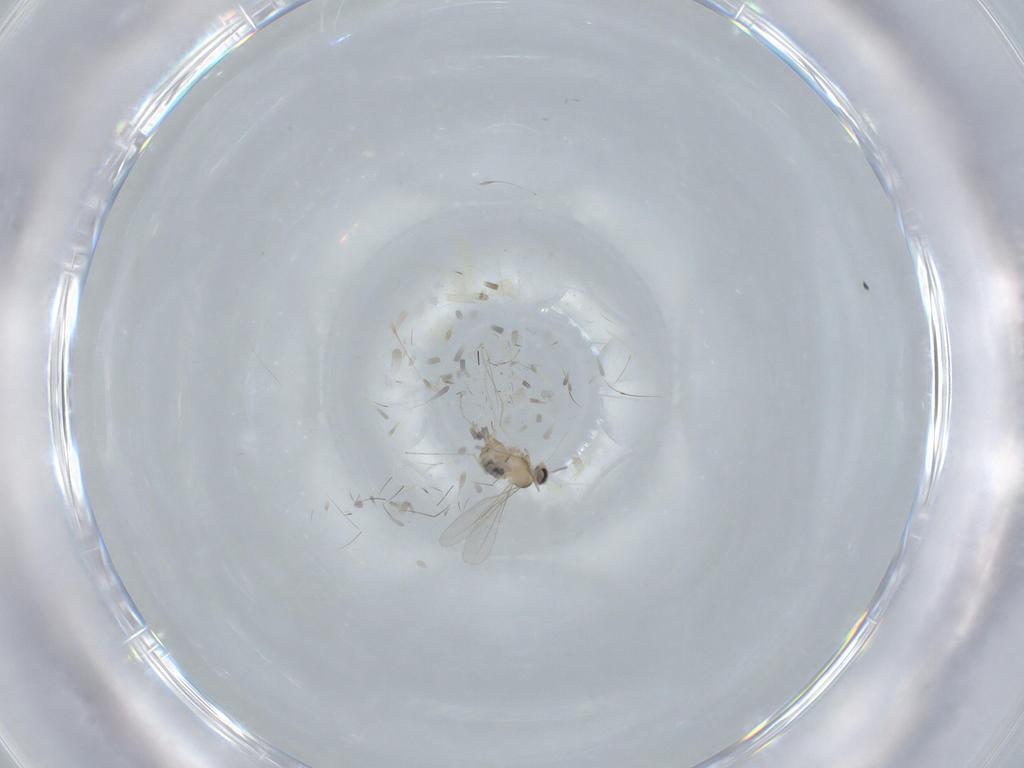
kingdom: Animalia
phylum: Arthropoda
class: Insecta
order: Diptera
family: Cecidomyiidae
